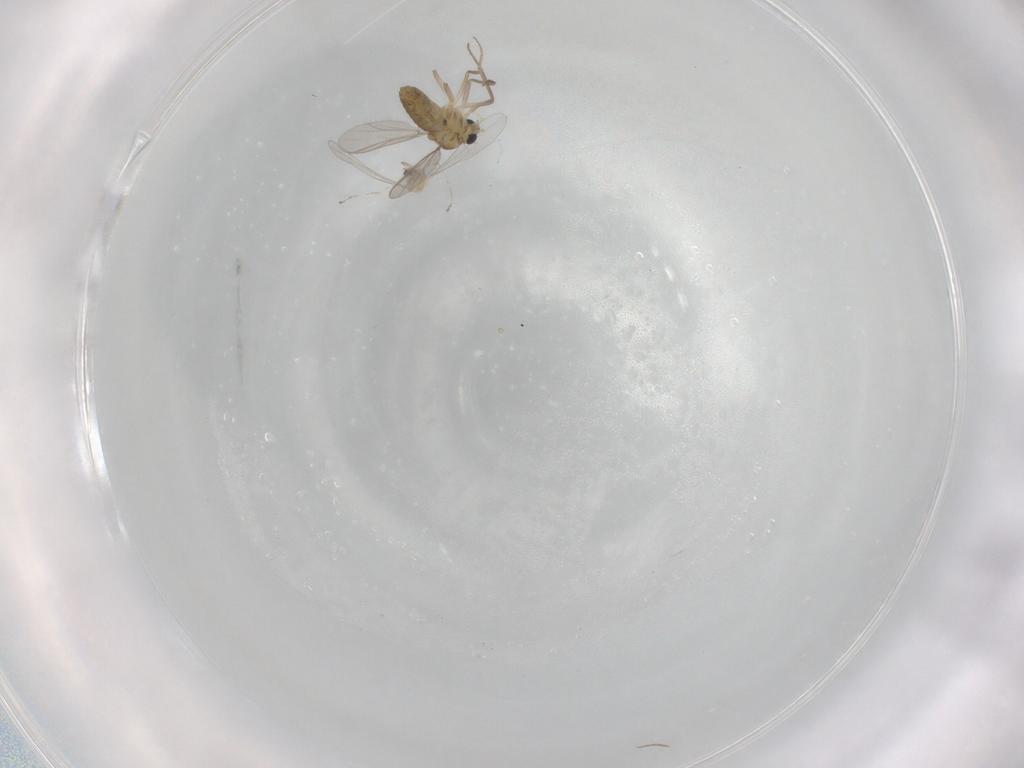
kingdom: Animalia
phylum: Arthropoda
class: Insecta
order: Diptera
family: Chironomidae
